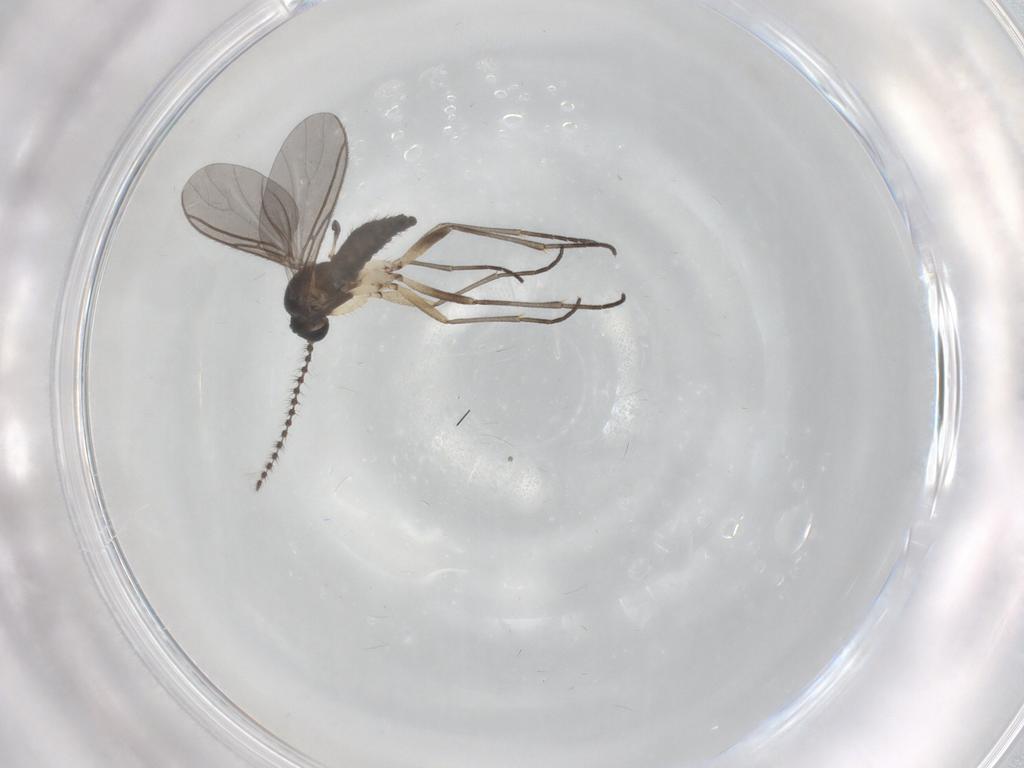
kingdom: Animalia
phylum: Arthropoda
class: Insecta
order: Diptera
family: Sciaridae
